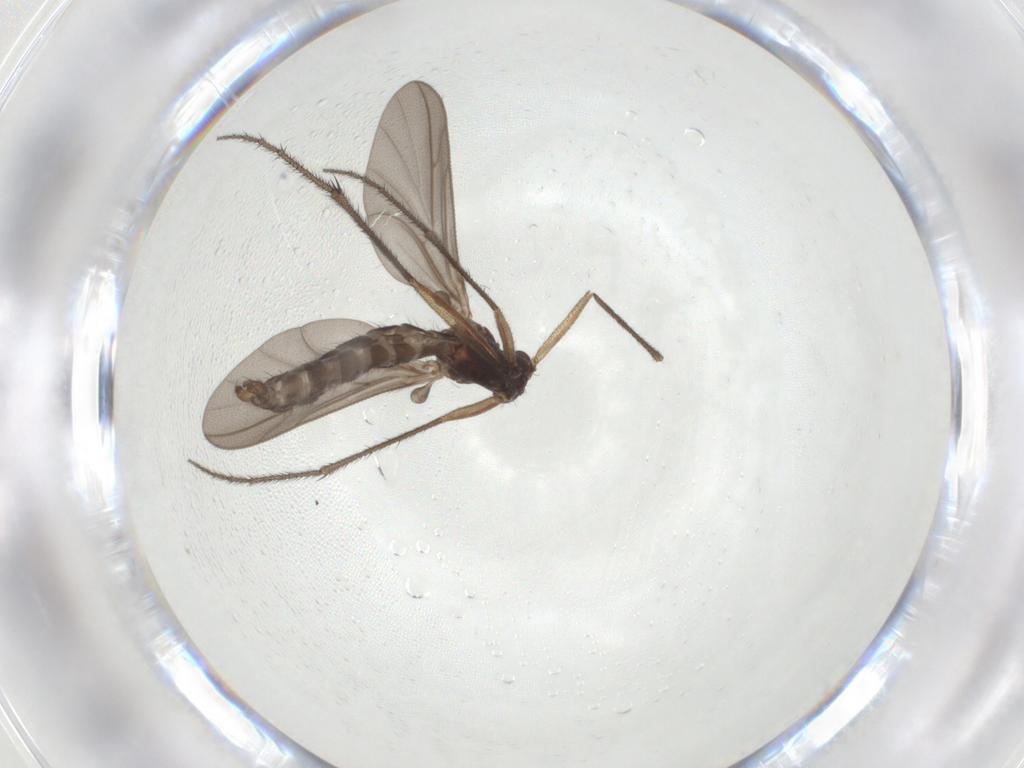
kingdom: Animalia
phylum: Arthropoda
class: Insecta
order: Diptera
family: Ditomyiidae
